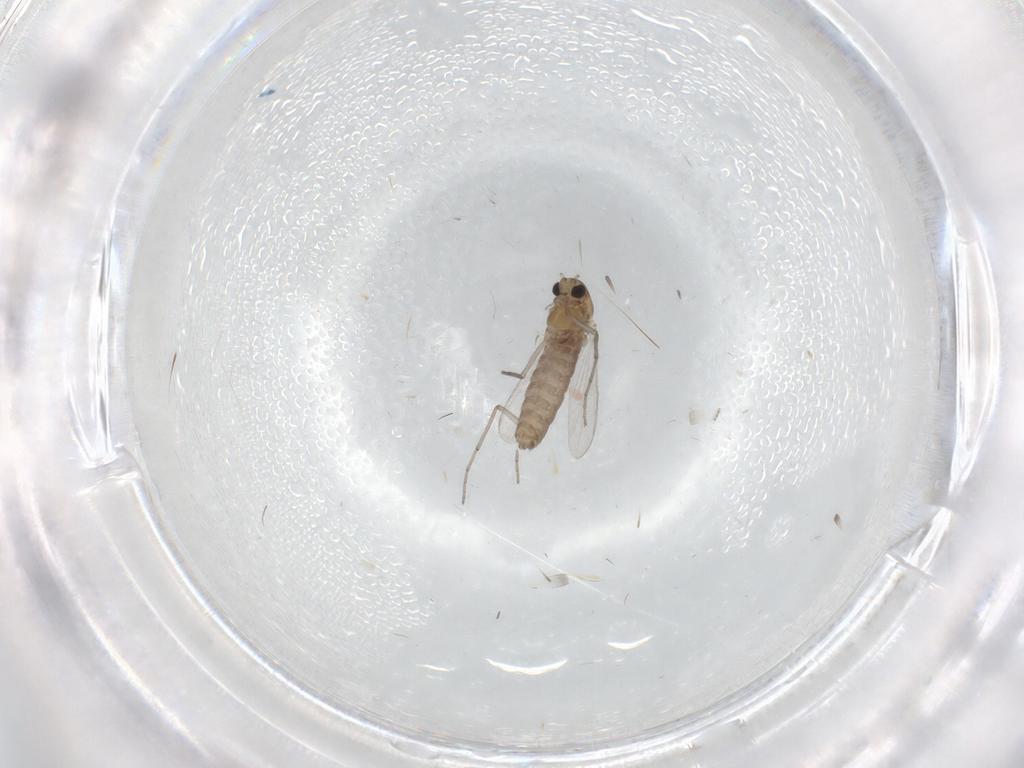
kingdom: Animalia
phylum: Arthropoda
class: Insecta
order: Diptera
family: Chironomidae
